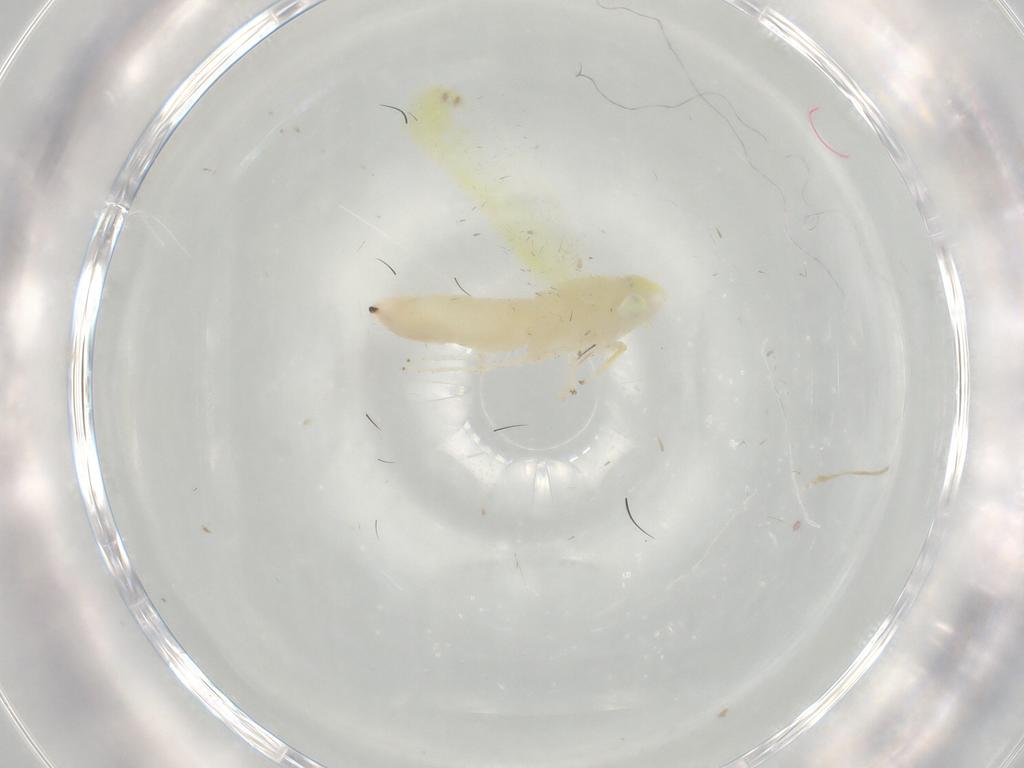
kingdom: Animalia
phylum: Arthropoda
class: Insecta
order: Hemiptera
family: Cicadellidae
